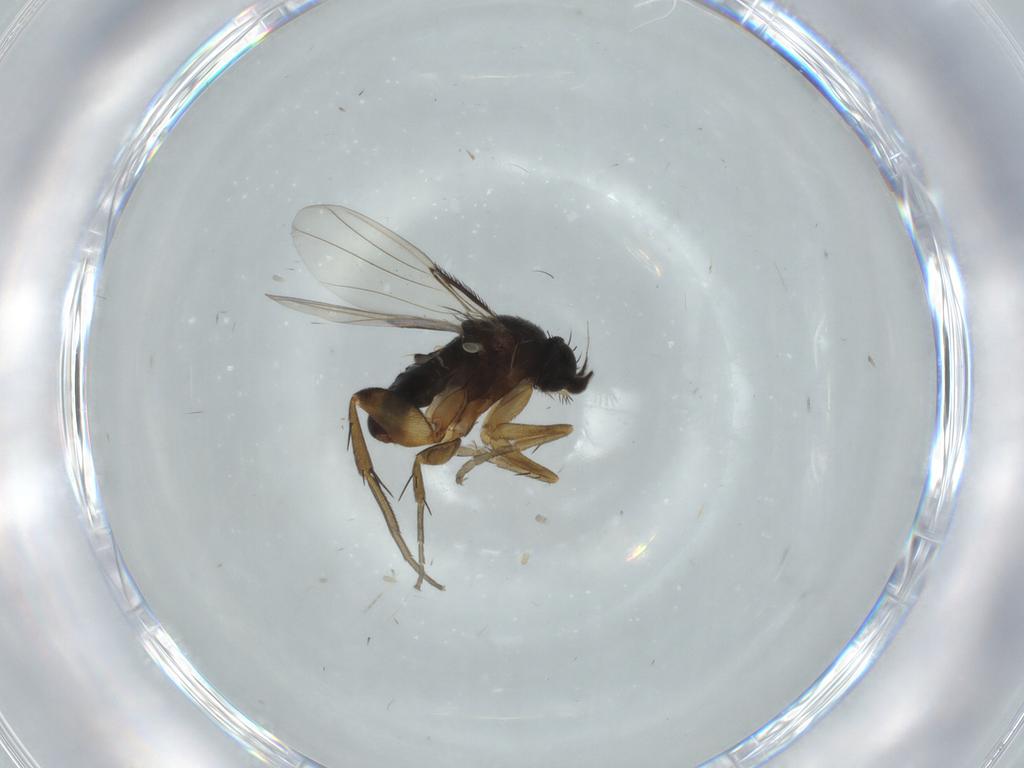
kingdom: Animalia
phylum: Arthropoda
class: Insecta
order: Diptera
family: Phoridae
